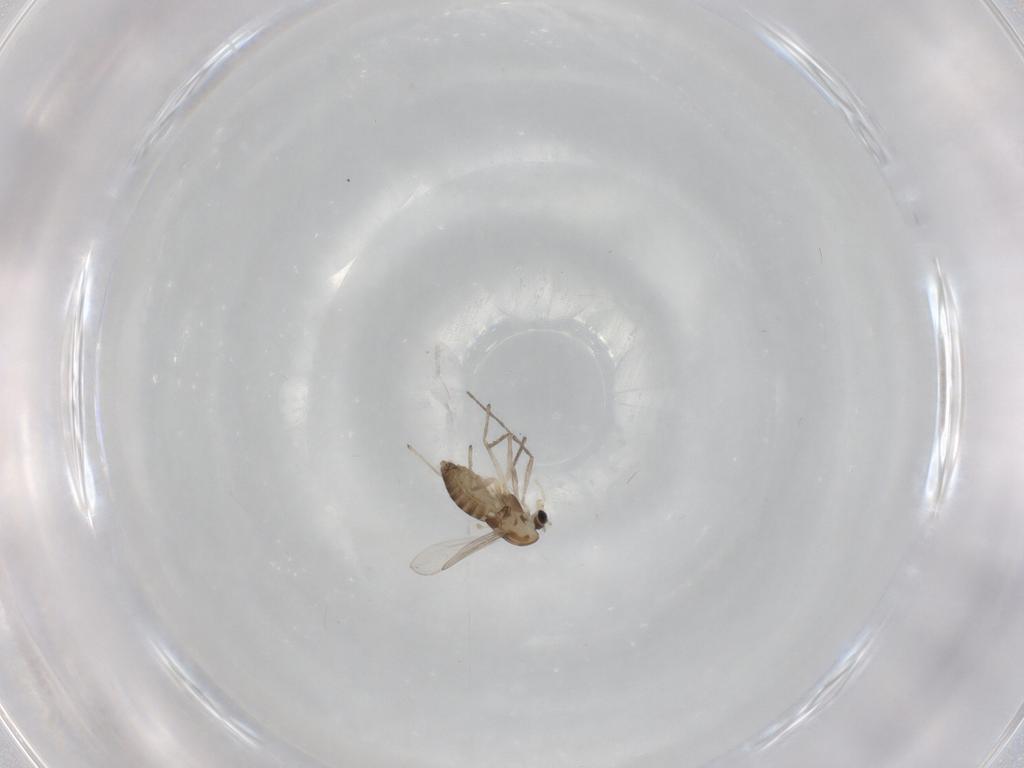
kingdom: Animalia
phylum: Arthropoda
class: Insecta
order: Diptera
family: Chironomidae
